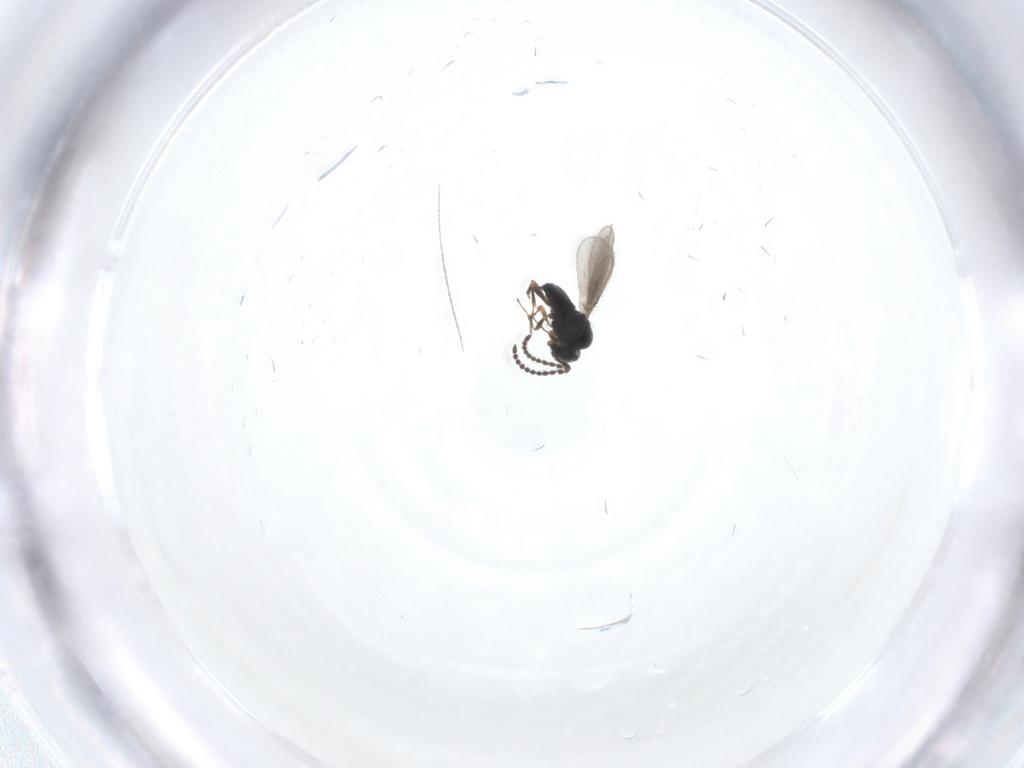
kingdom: Animalia
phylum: Arthropoda
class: Insecta
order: Hymenoptera
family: Scelionidae
